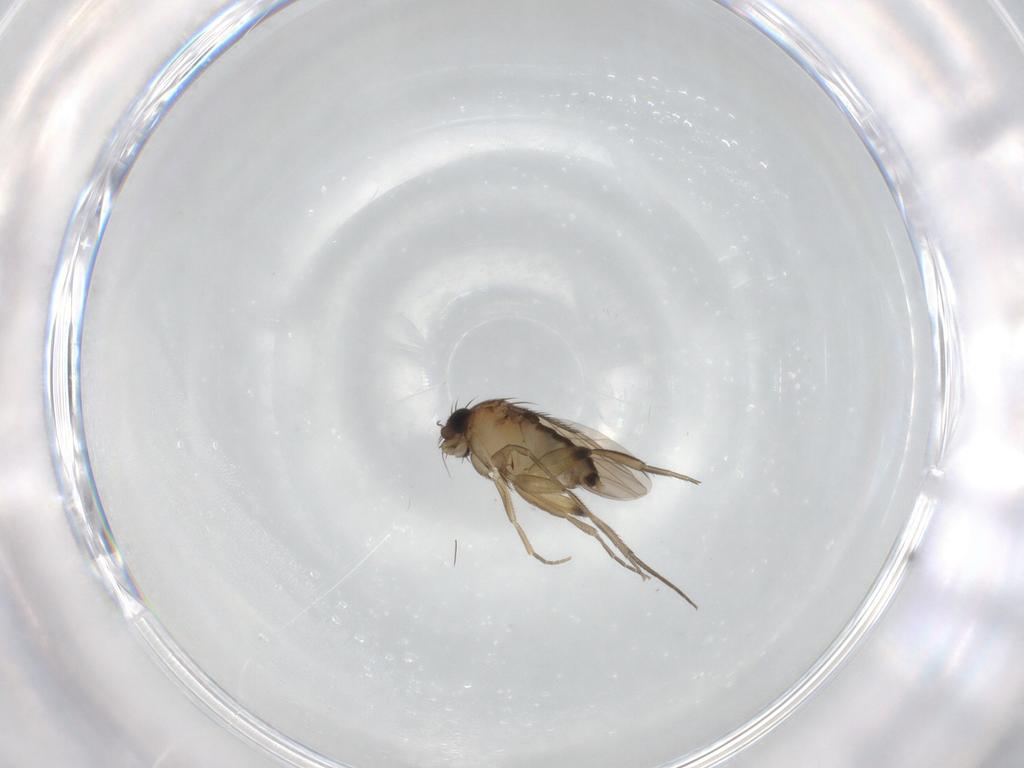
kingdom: Animalia
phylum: Arthropoda
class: Insecta
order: Diptera
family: Phoridae
